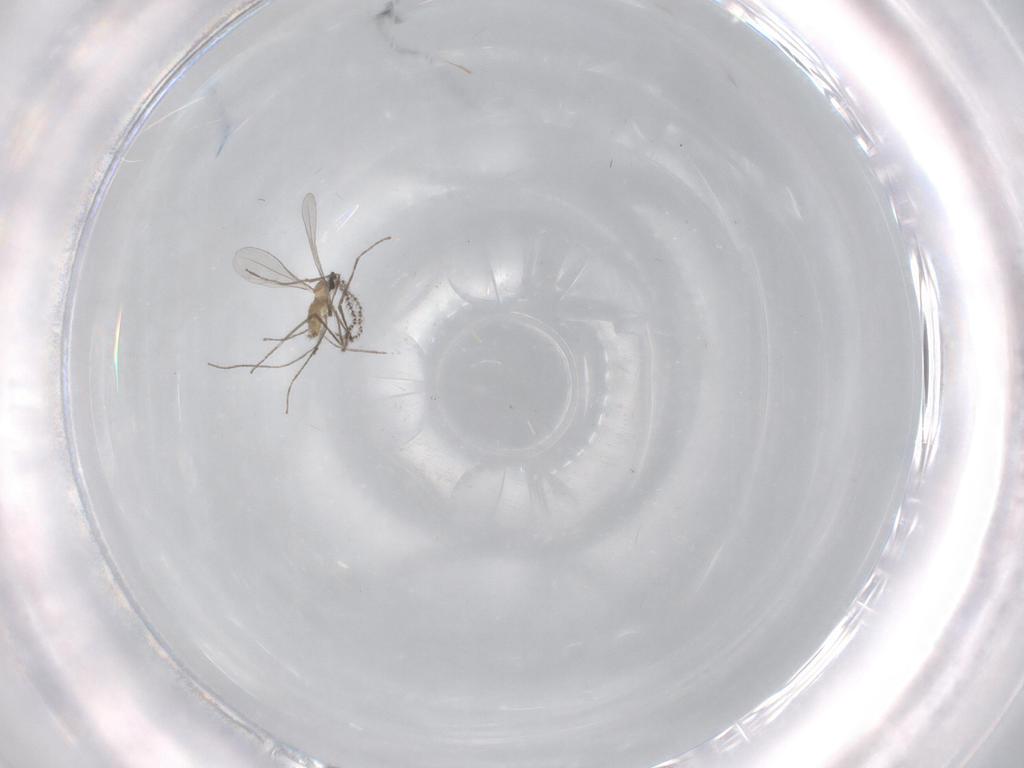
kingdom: Animalia
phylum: Arthropoda
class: Insecta
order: Diptera
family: Cecidomyiidae
